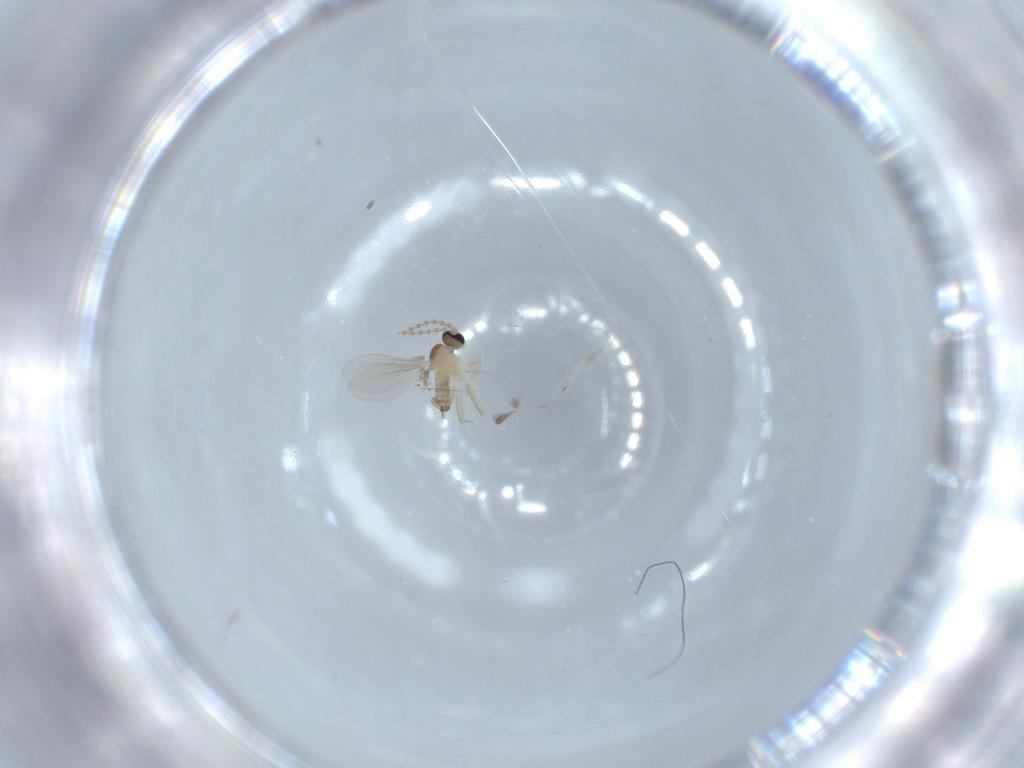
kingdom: Animalia
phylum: Arthropoda
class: Insecta
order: Diptera
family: Cecidomyiidae
